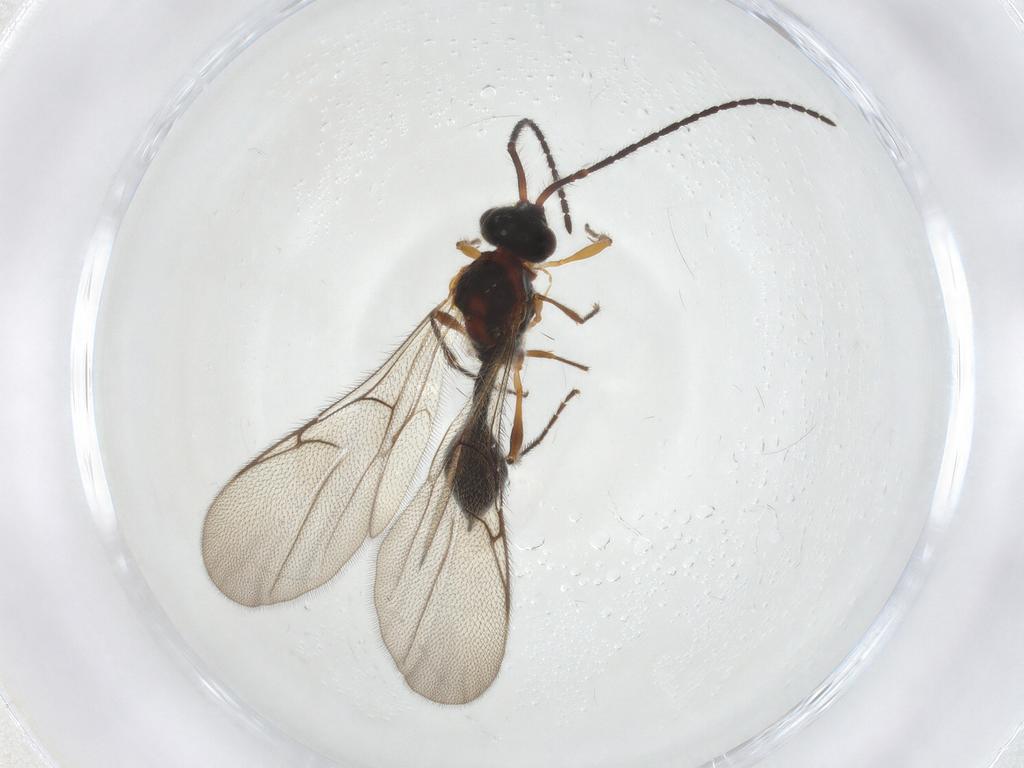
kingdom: Animalia
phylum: Arthropoda
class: Insecta
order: Hymenoptera
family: Diapriidae
